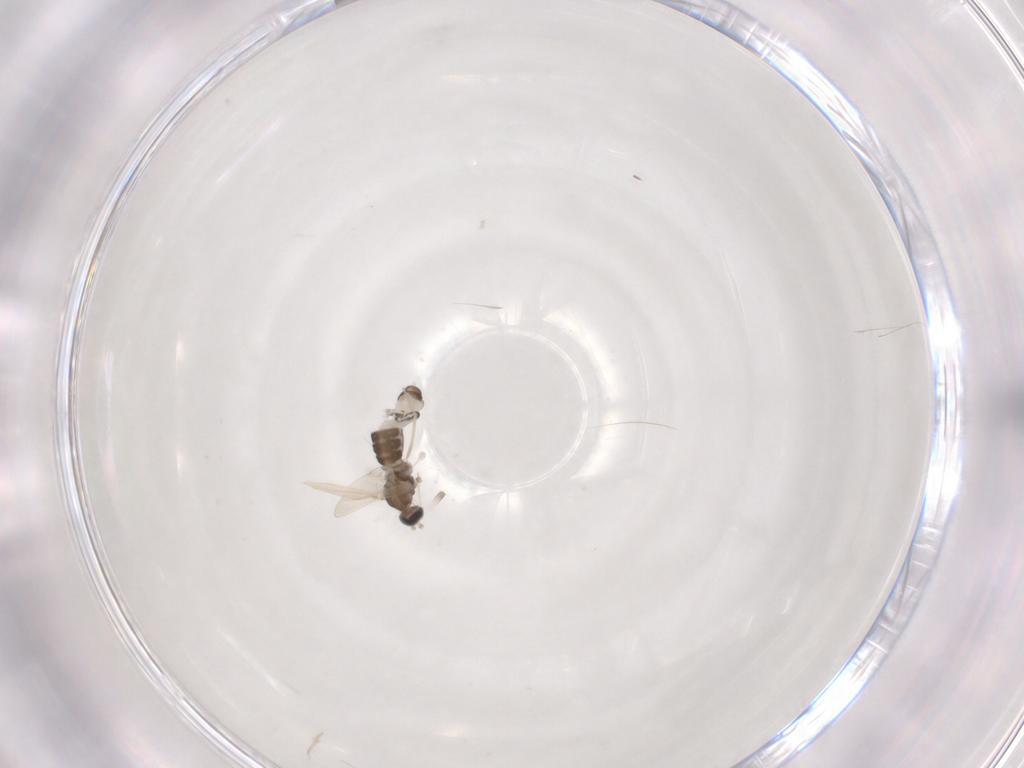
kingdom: Animalia
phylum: Arthropoda
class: Insecta
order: Diptera
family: Cecidomyiidae
